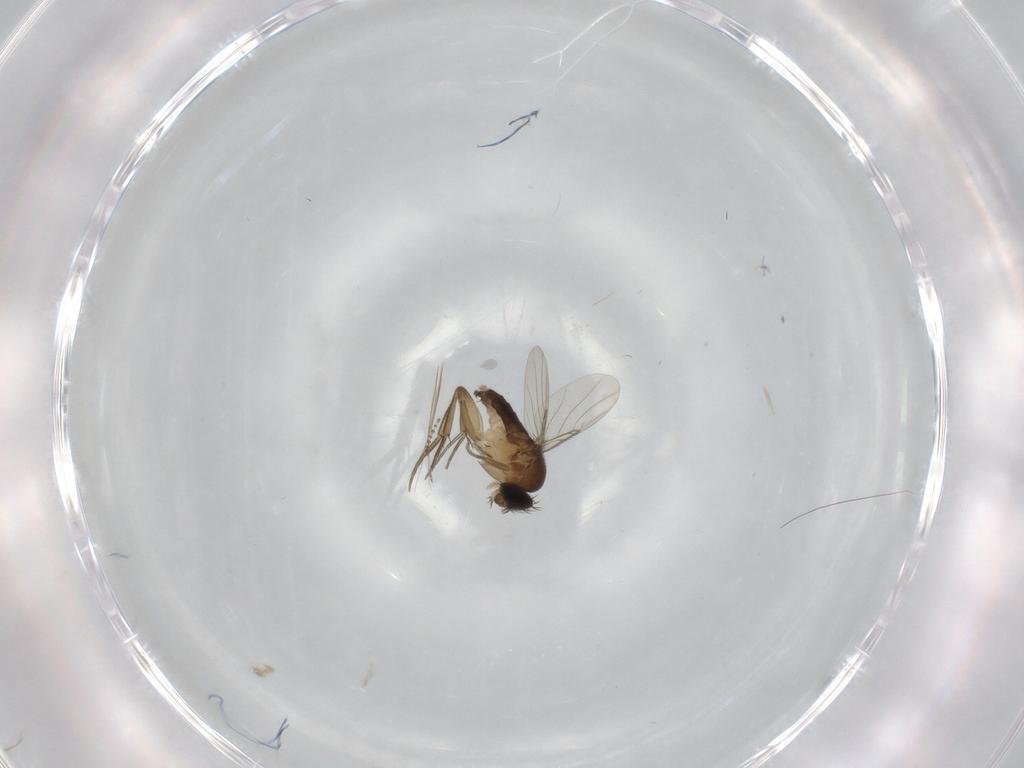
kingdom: Animalia
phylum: Arthropoda
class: Insecta
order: Diptera
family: Phoridae
